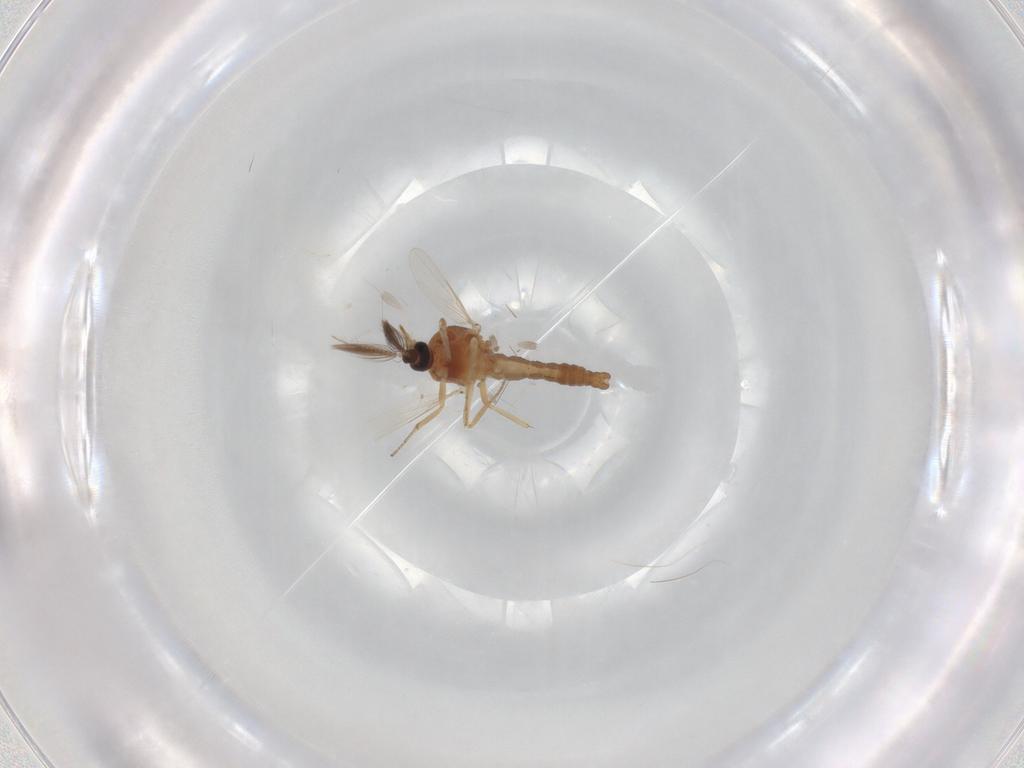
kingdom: Animalia
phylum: Arthropoda
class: Insecta
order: Diptera
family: Ceratopogonidae
